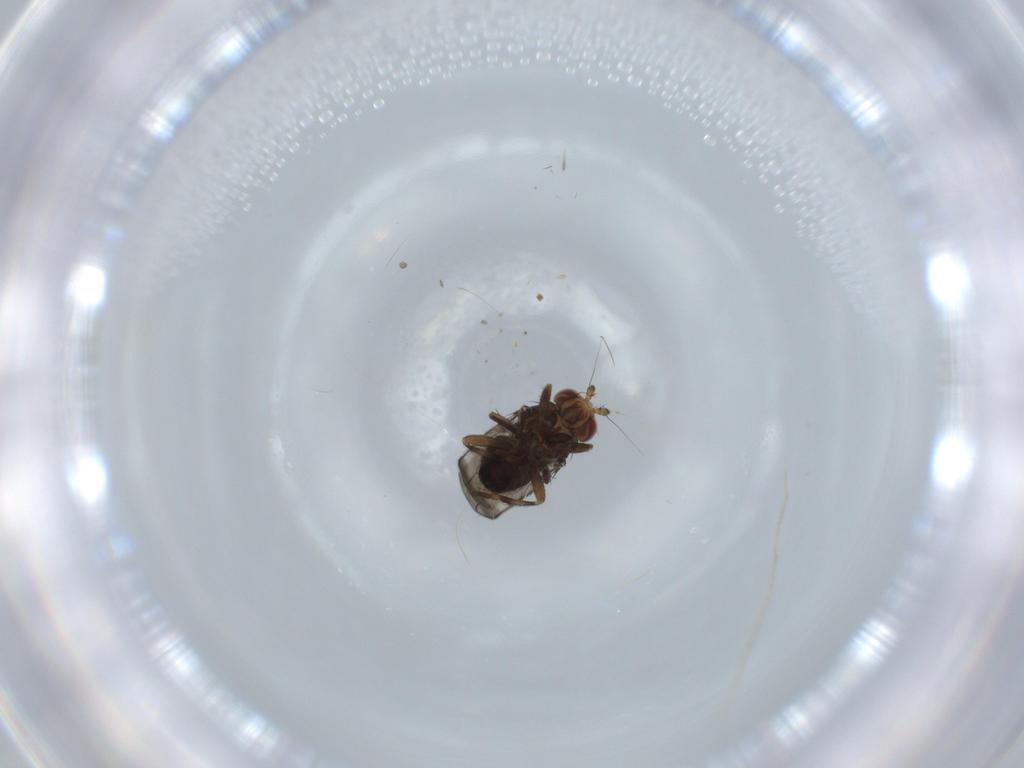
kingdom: Animalia
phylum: Arthropoda
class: Insecta
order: Diptera
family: Sphaeroceridae
